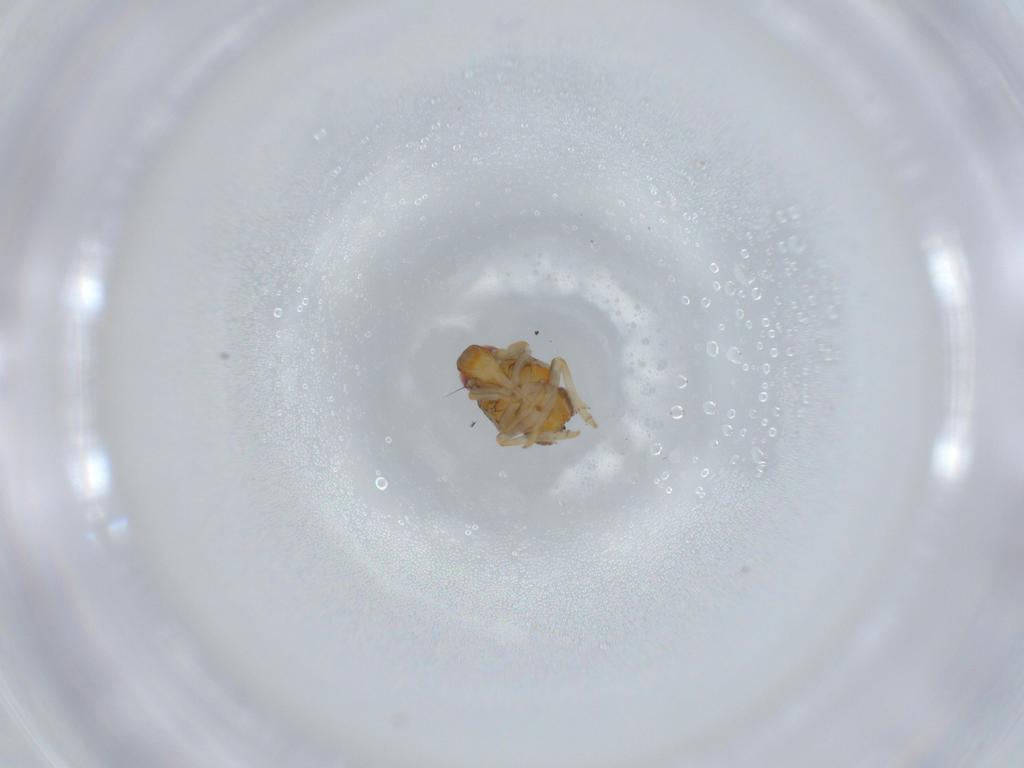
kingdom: Animalia
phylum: Arthropoda
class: Insecta
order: Hemiptera
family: Issidae
